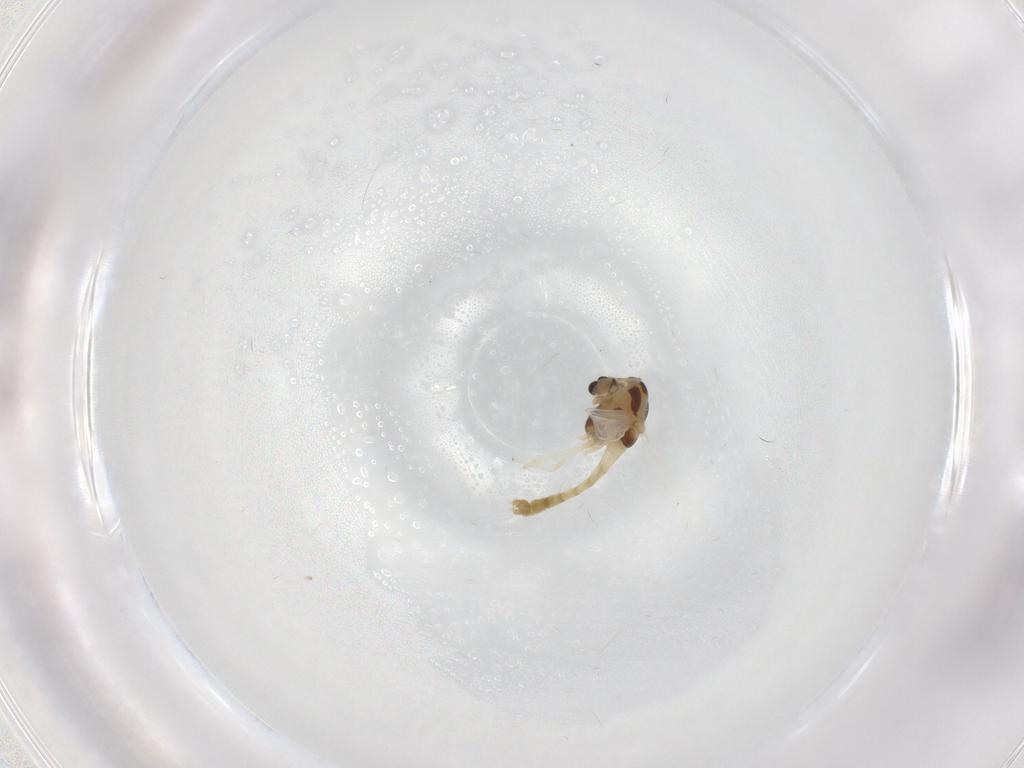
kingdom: Animalia
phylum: Arthropoda
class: Insecta
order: Diptera
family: Chironomidae
